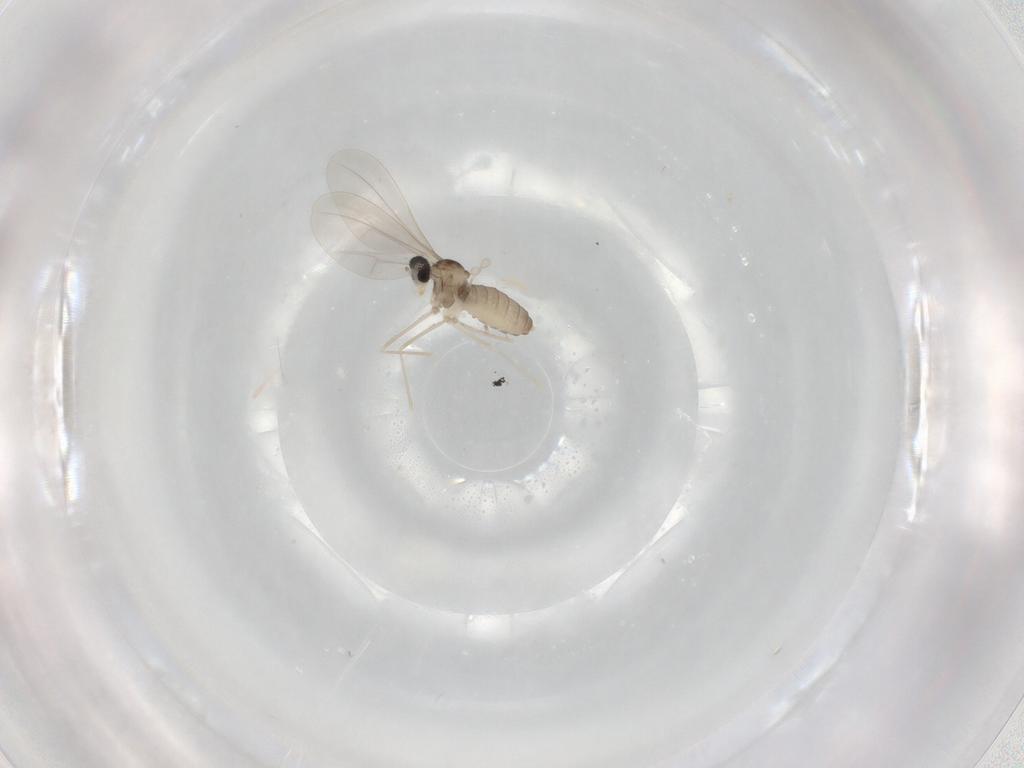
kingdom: Animalia
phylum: Arthropoda
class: Insecta
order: Diptera
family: Cecidomyiidae
